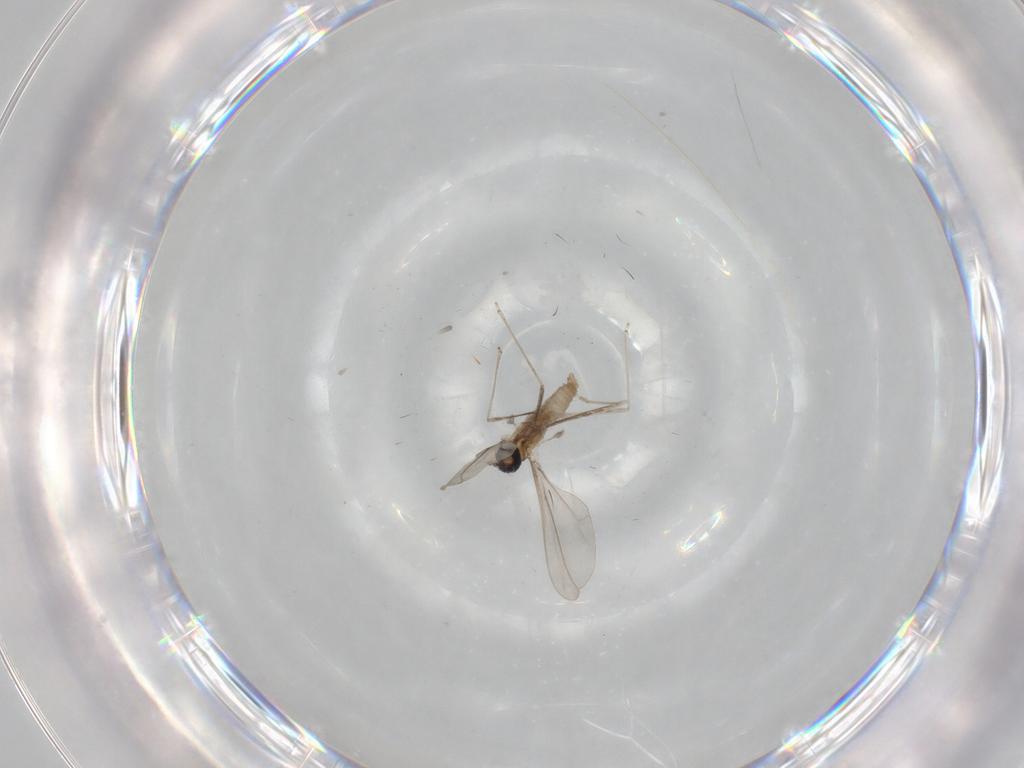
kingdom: Animalia
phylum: Arthropoda
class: Insecta
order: Diptera
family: Cecidomyiidae
